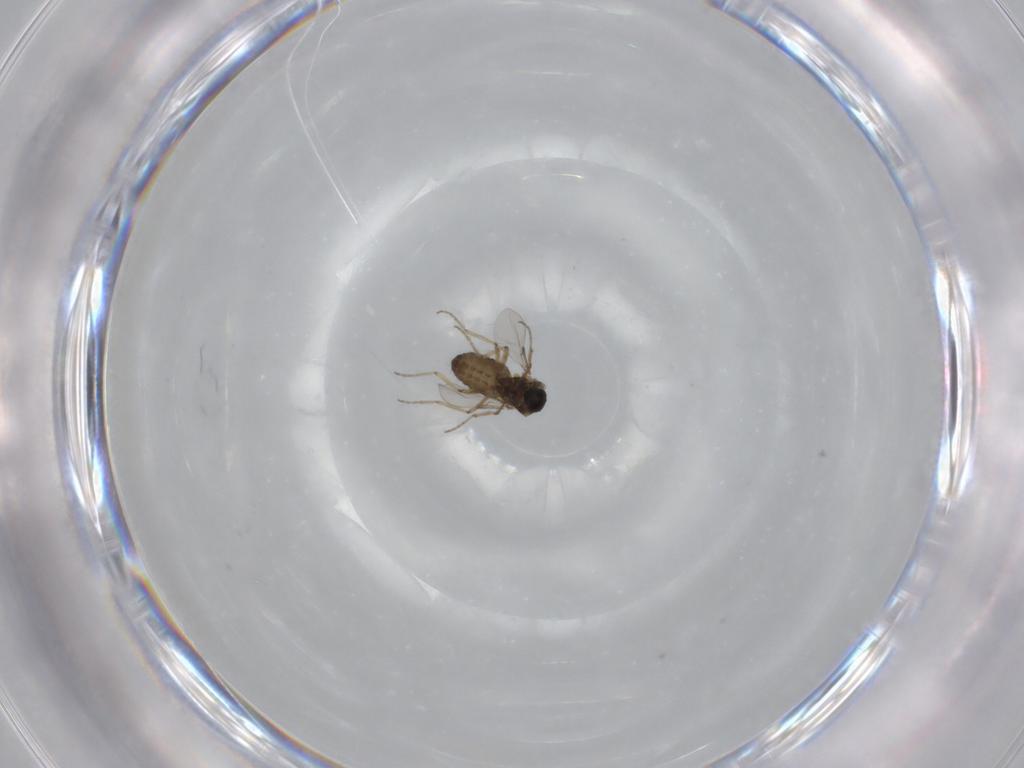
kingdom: Animalia
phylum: Arthropoda
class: Insecta
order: Diptera
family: Ceratopogonidae
